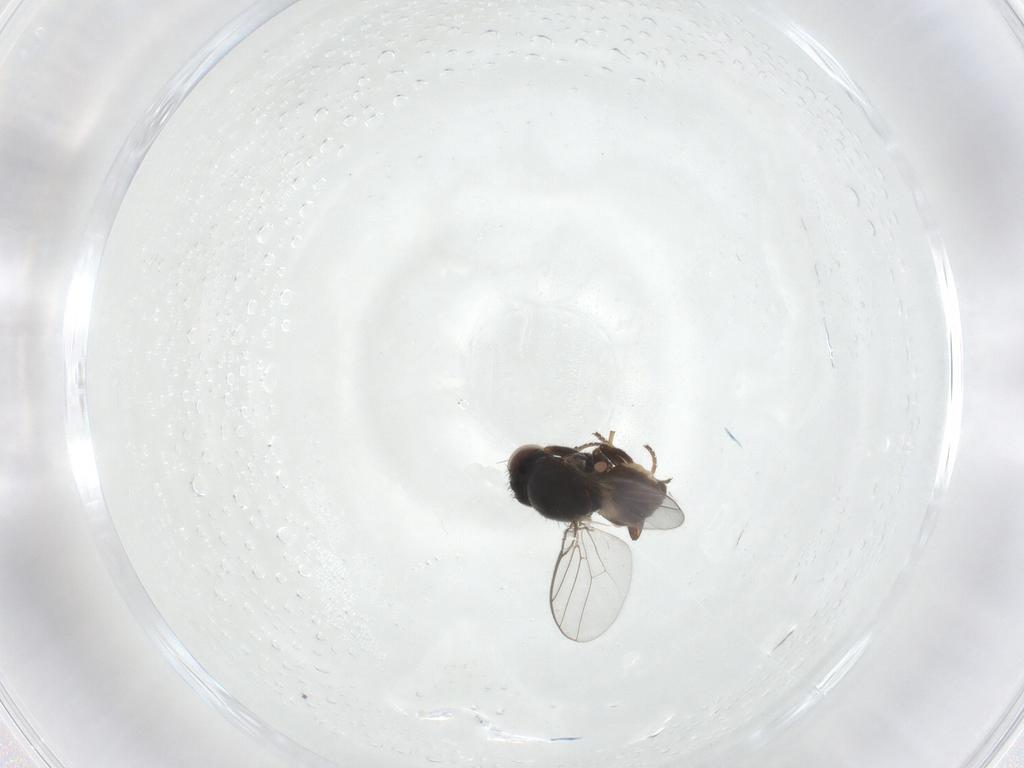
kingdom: Animalia
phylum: Arthropoda
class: Insecta
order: Diptera
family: Chloropidae
